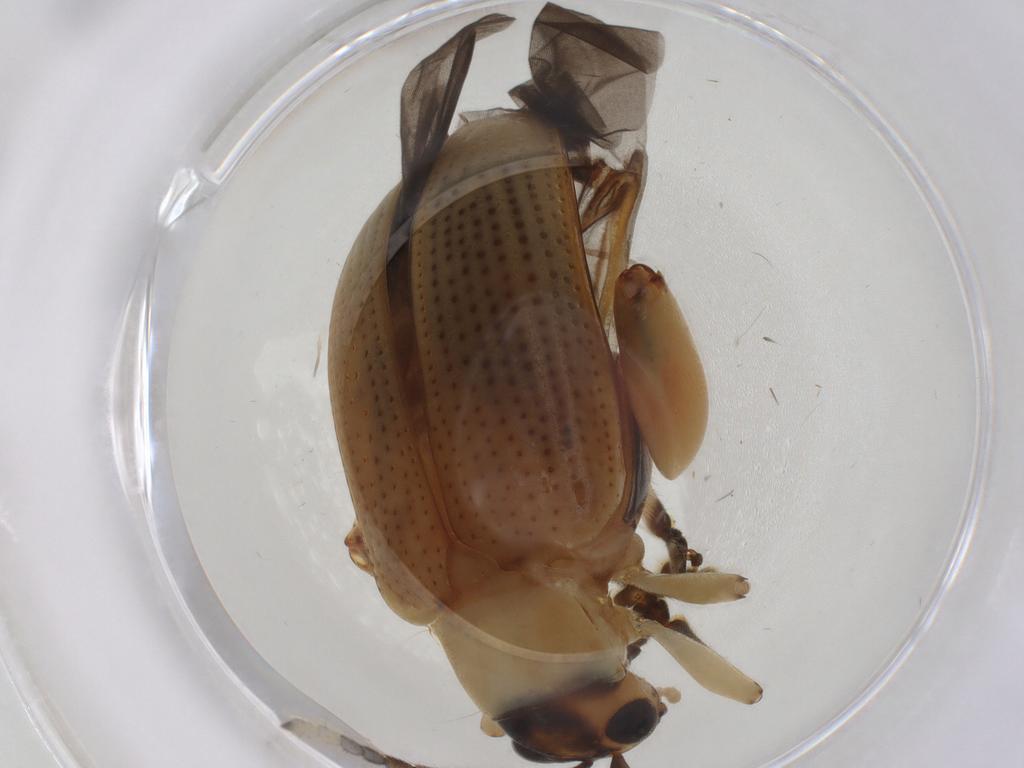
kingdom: Animalia
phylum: Arthropoda
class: Insecta
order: Coleoptera
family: Chrysomelidae
